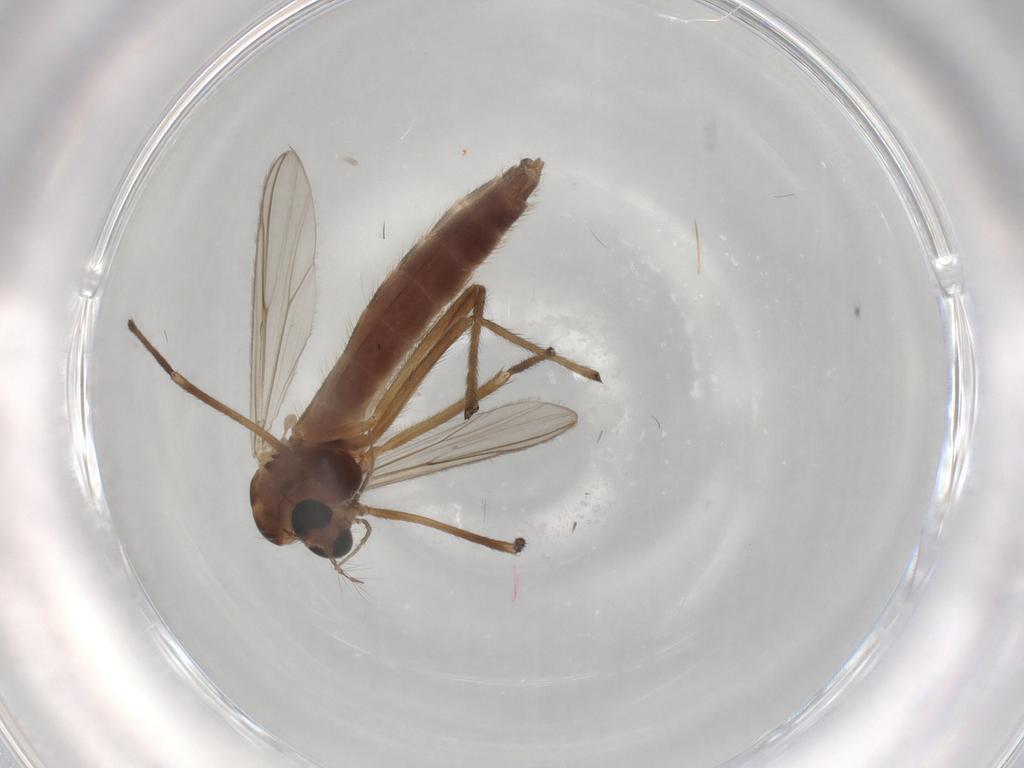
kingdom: Animalia
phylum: Arthropoda
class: Insecta
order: Diptera
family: Chironomidae
